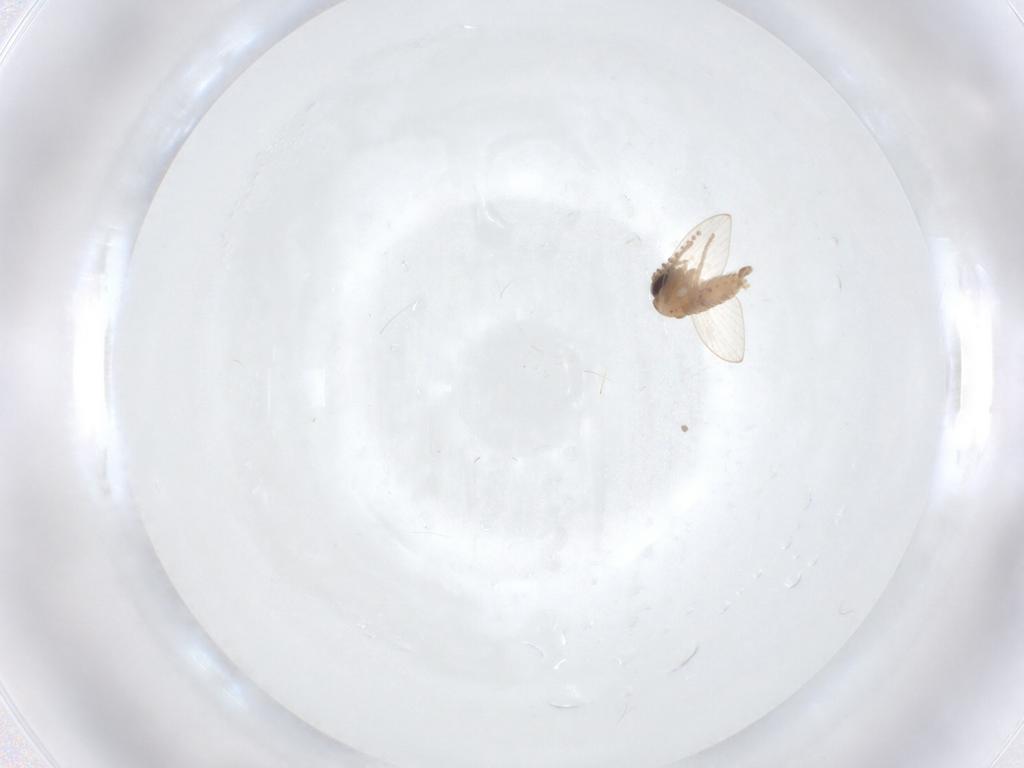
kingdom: Animalia
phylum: Arthropoda
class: Insecta
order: Diptera
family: Psychodidae
